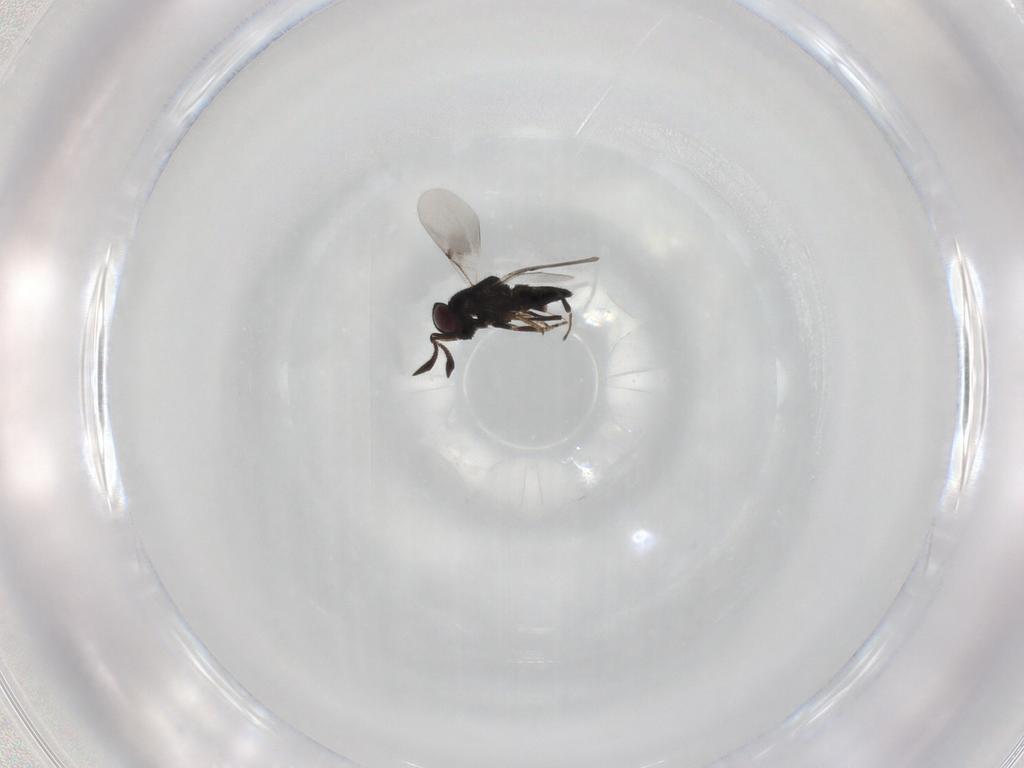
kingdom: Animalia
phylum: Arthropoda
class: Insecta
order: Hymenoptera
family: Encyrtidae
